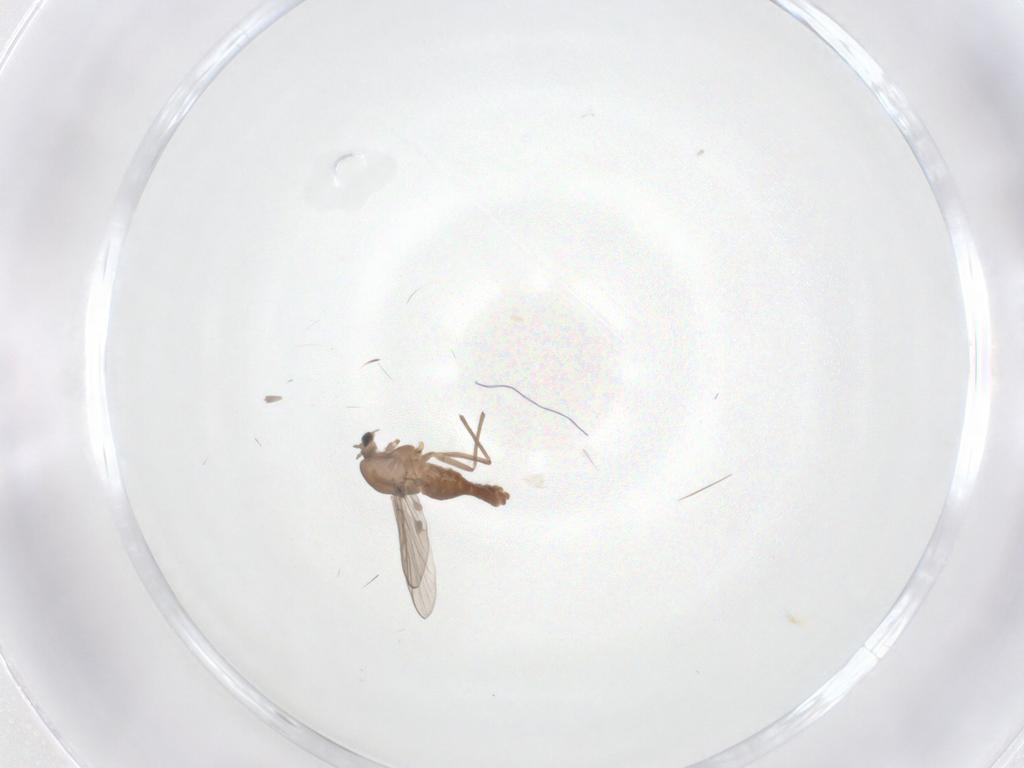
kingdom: Animalia
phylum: Arthropoda
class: Insecta
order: Diptera
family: Chironomidae
